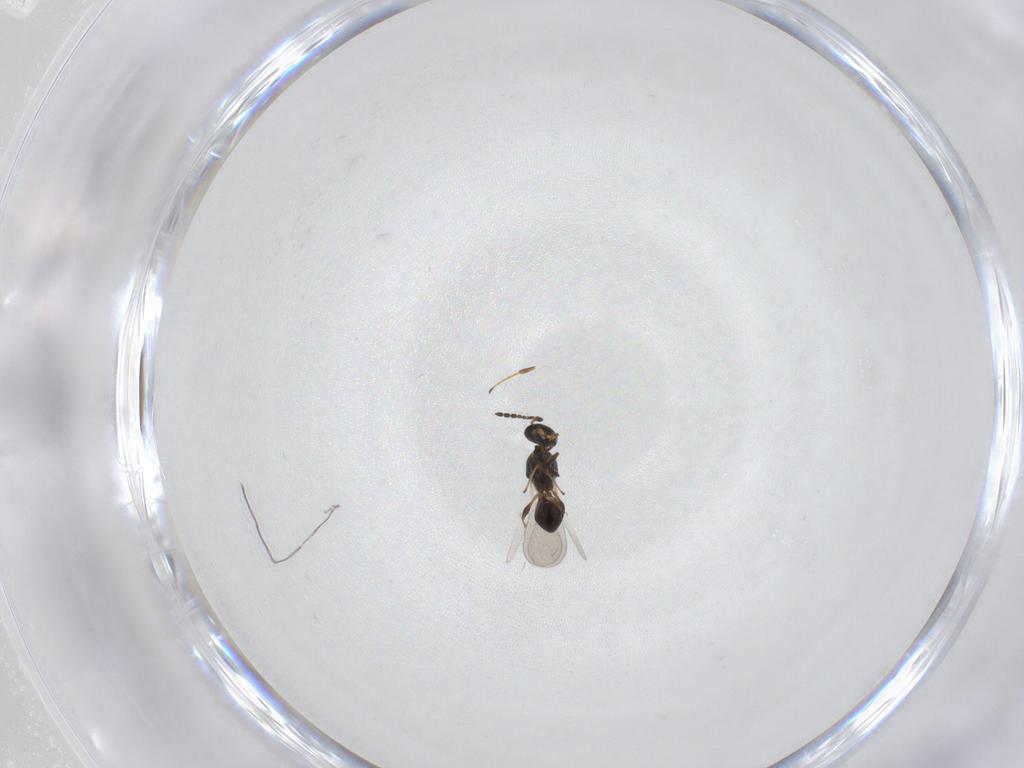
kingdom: Animalia
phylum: Arthropoda
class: Insecta
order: Hymenoptera
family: Platygastridae
